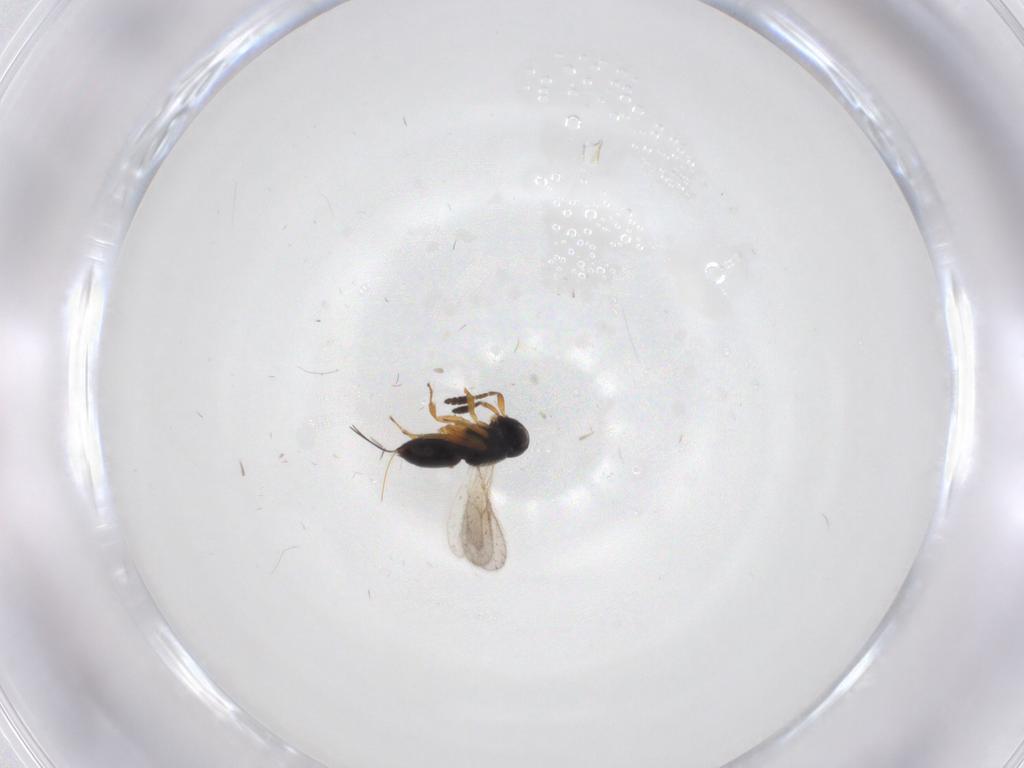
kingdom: Animalia
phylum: Arthropoda
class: Insecta
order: Hymenoptera
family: Scelionidae
